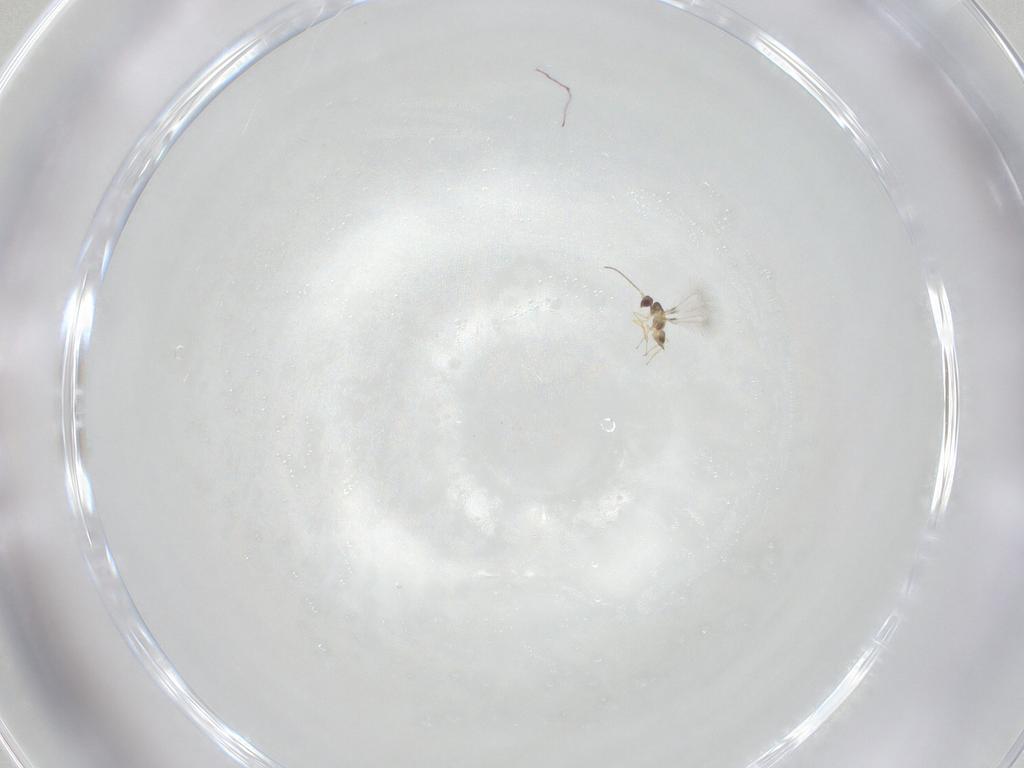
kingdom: Animalia
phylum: Arthropoda
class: Insecta
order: Hymenoptera
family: Mymaridae
